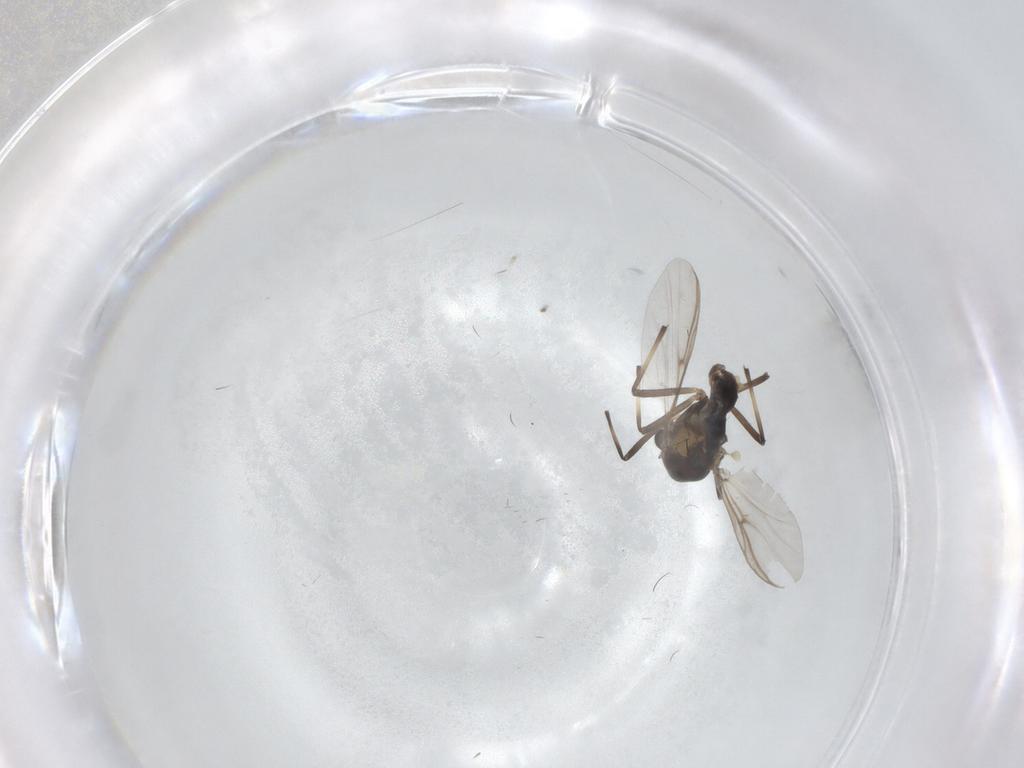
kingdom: Animalia
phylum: Arthropoda
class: Insecta
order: Diptera
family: Chironomidae
